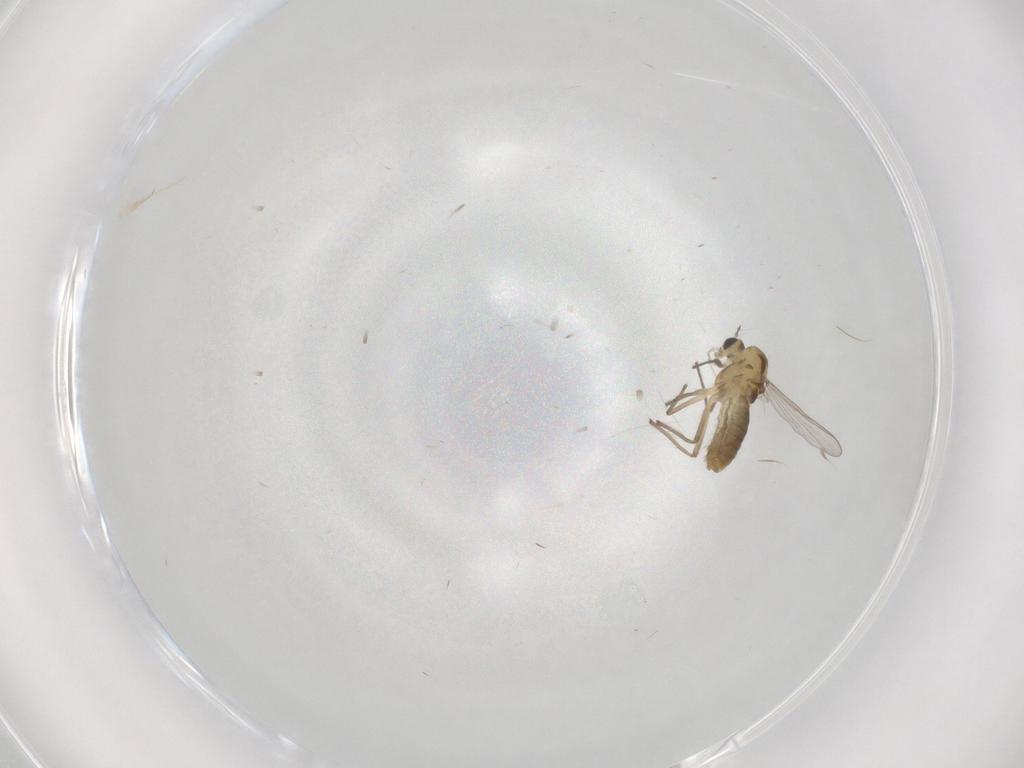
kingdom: Animalia
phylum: Arthropoda
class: Insecta
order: Diptera
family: Chironomidae
